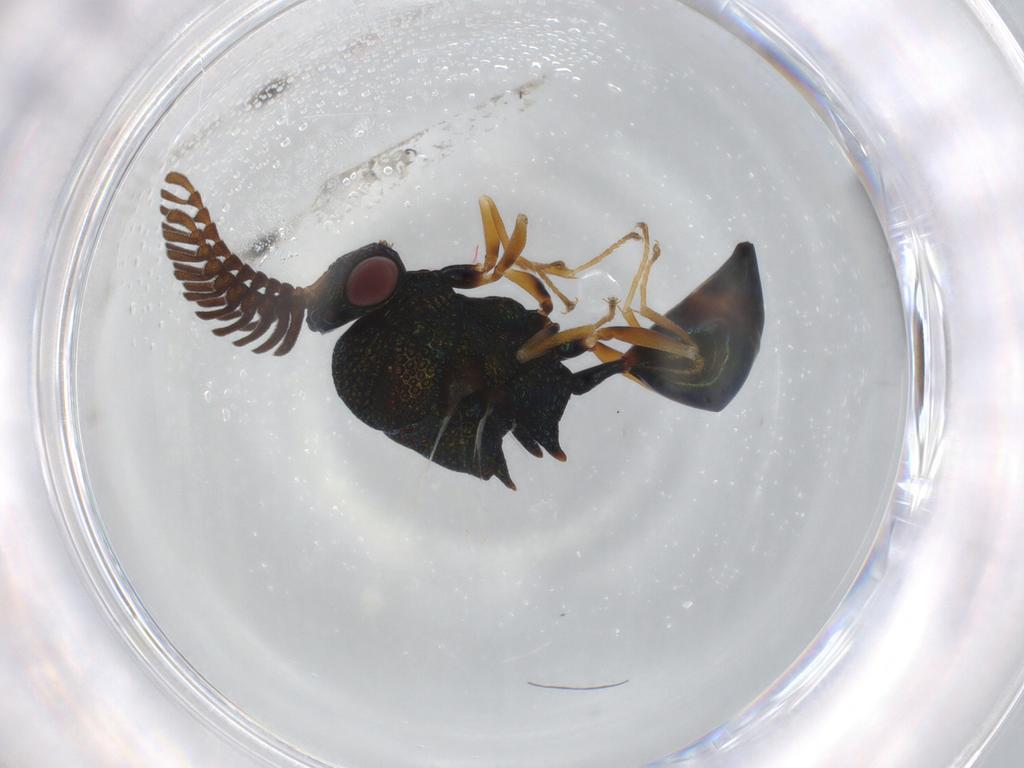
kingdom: Animalia
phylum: Arthropoda
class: Insecta
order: Hymenoptera
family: Eucharitidae
